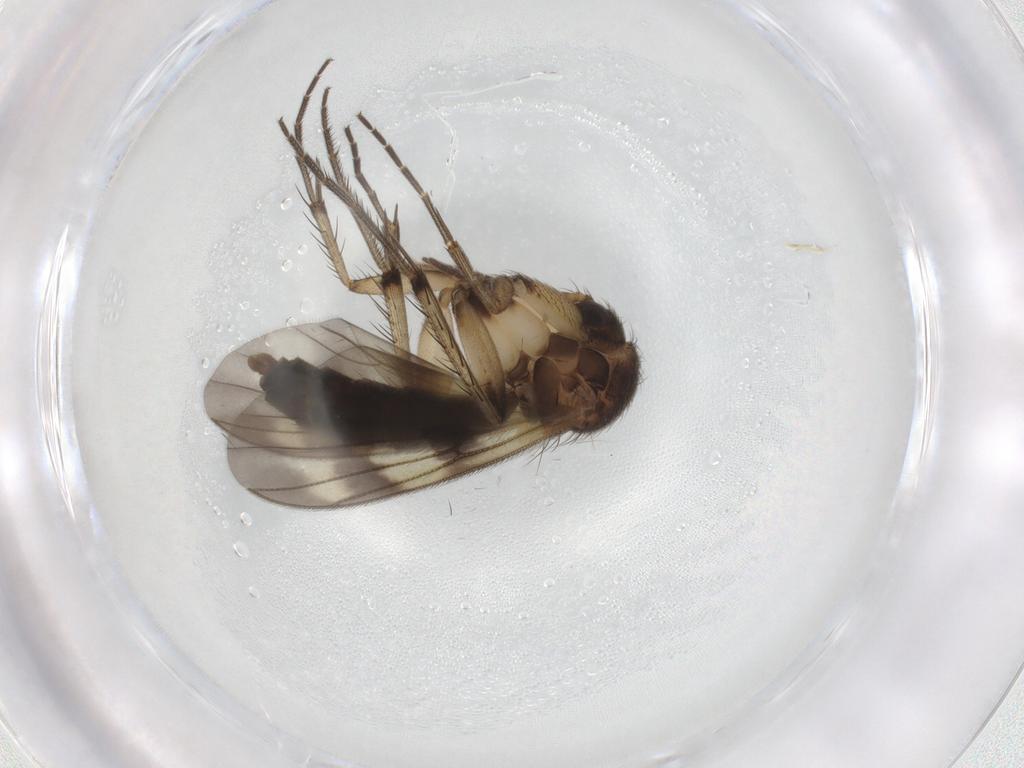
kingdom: Animalia
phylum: Arthropoda
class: Insecta
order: Diptera
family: Mycetophilidae
